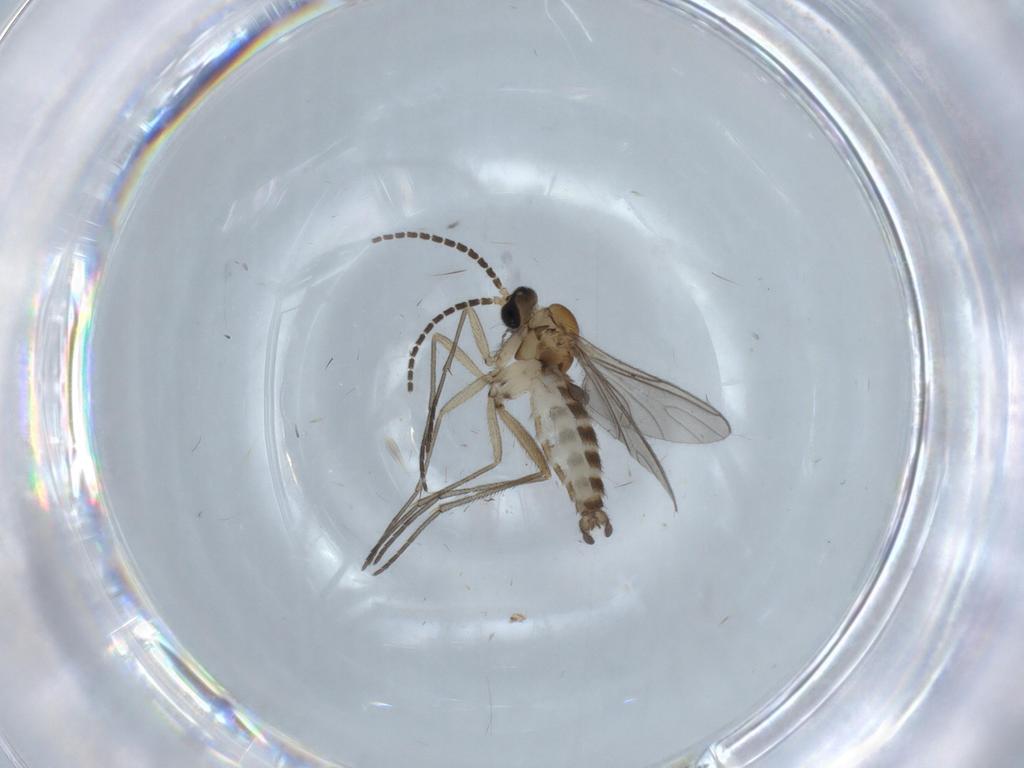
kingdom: Animalia
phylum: Arthropoda
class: Insecta
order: Diptera
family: Sciaridae
